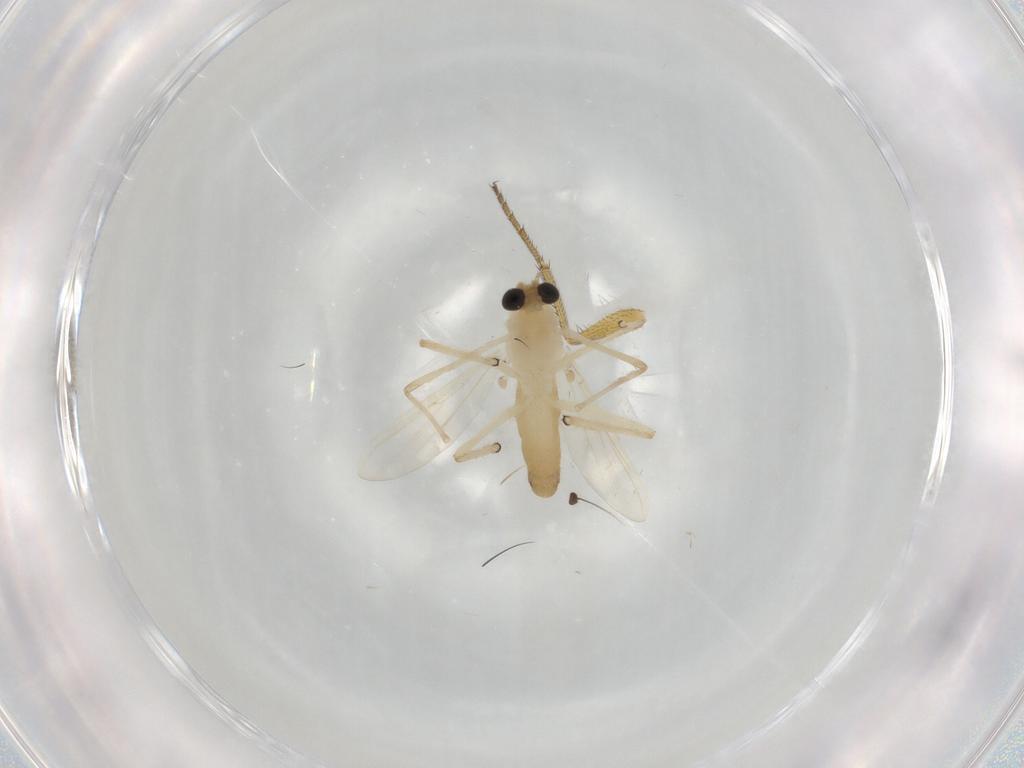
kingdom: Animalia
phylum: Arthropoda
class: Insecta
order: Diptera
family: Chironomidae
